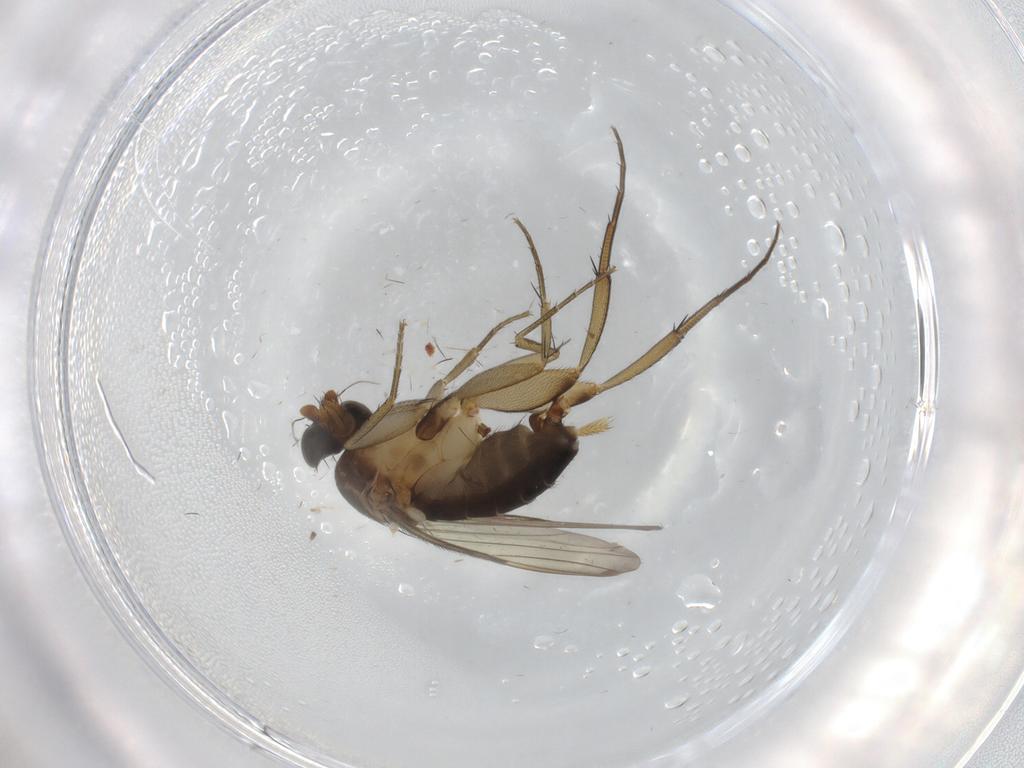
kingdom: Animalia
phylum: Arthropoda
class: Insecta
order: Diptera
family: Phoridae
